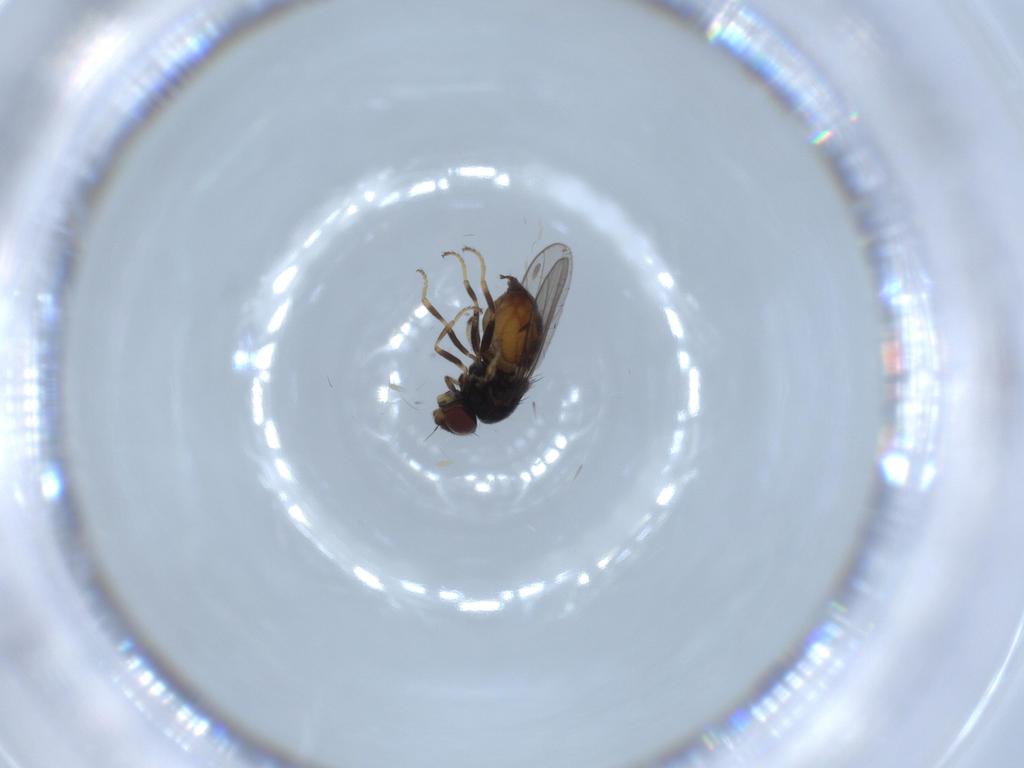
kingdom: Animalia
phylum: Arthropoda
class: Insecta
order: Diptera
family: Chloropidae
